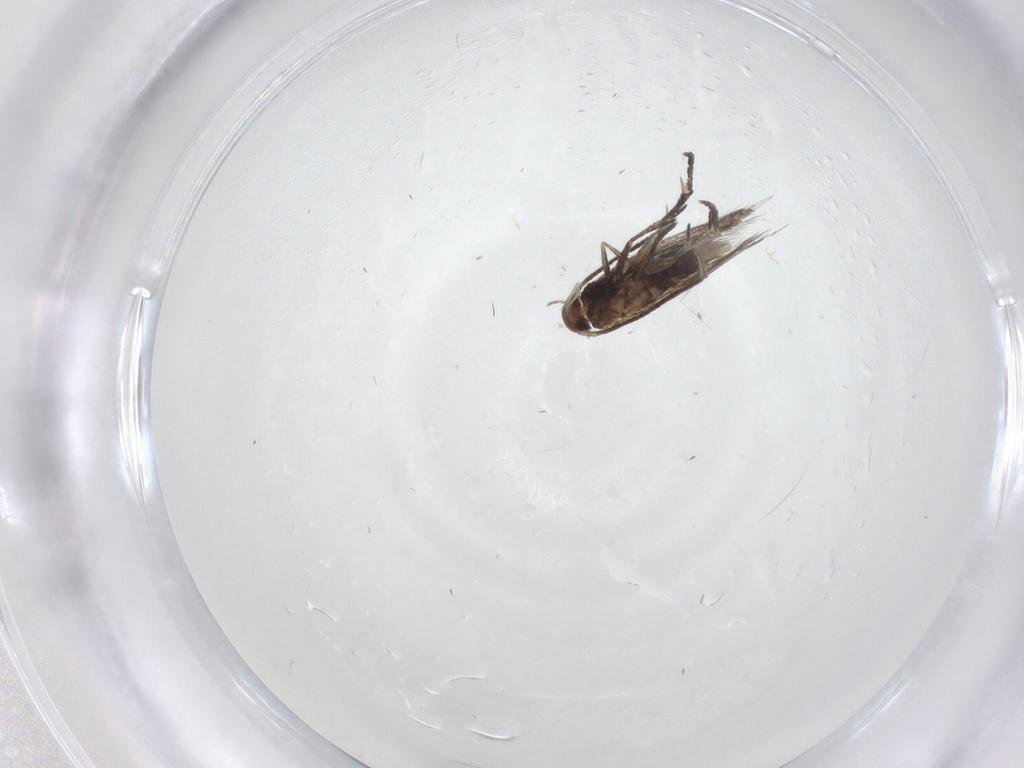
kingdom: Animalia
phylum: Arthropoda
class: Insecta
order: Lepidoptera
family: Gracillariidae
